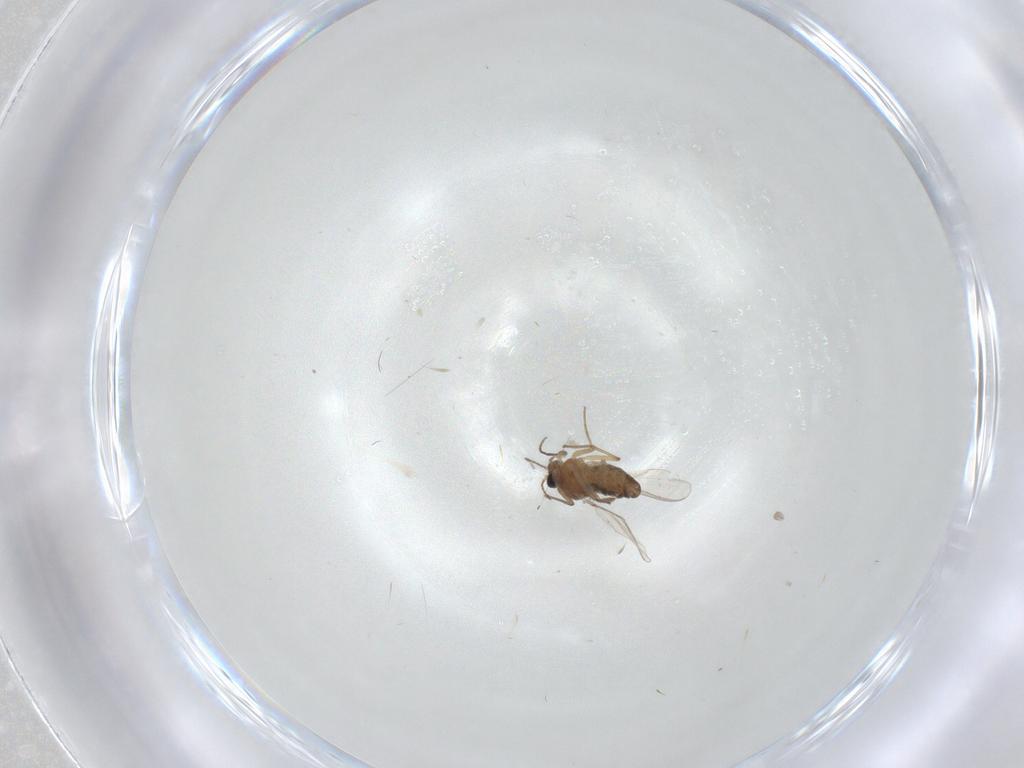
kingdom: Animalia
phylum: Arthropoda
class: Insecta
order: Diptera
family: Chironomidae
